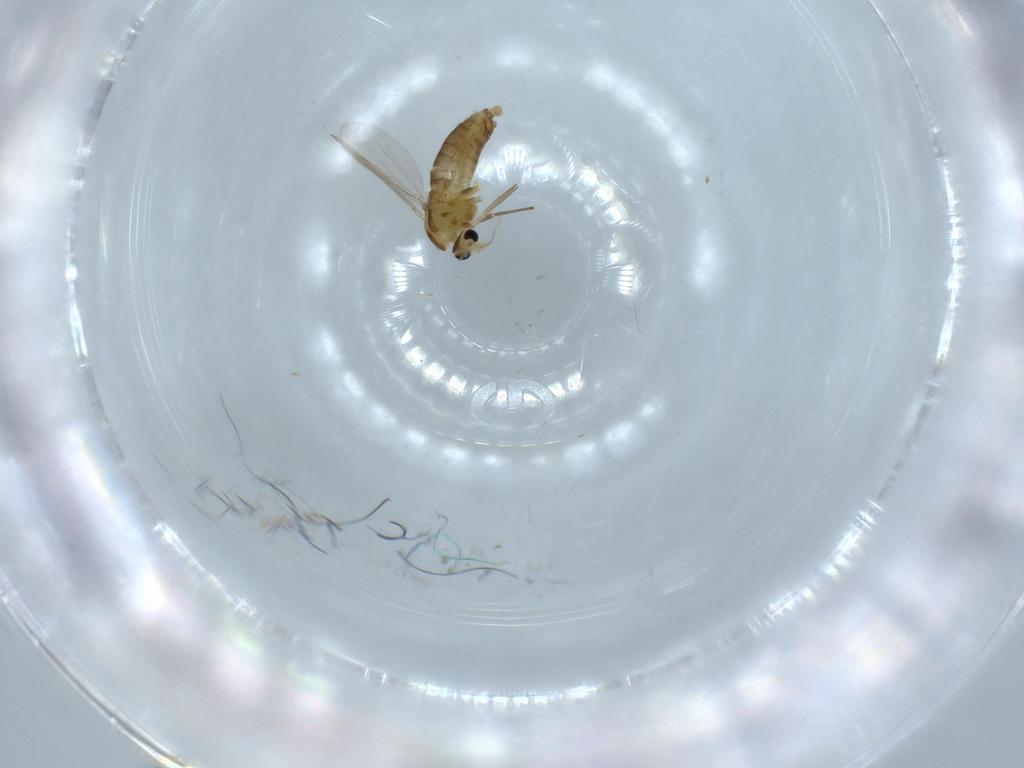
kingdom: Animalia
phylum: Arthropoda
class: Insecta
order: Diptera
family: Chironomidae
